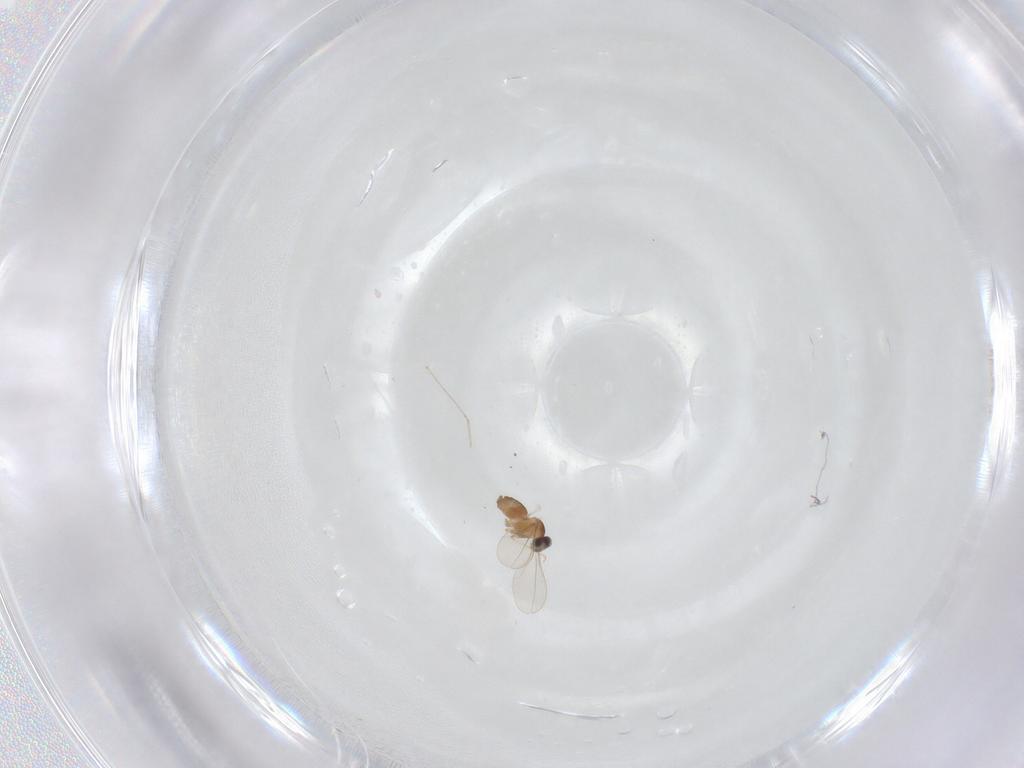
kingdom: Animalia
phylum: Arthropoda
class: Insecta
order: Diptera
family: Cecidomyiidae
